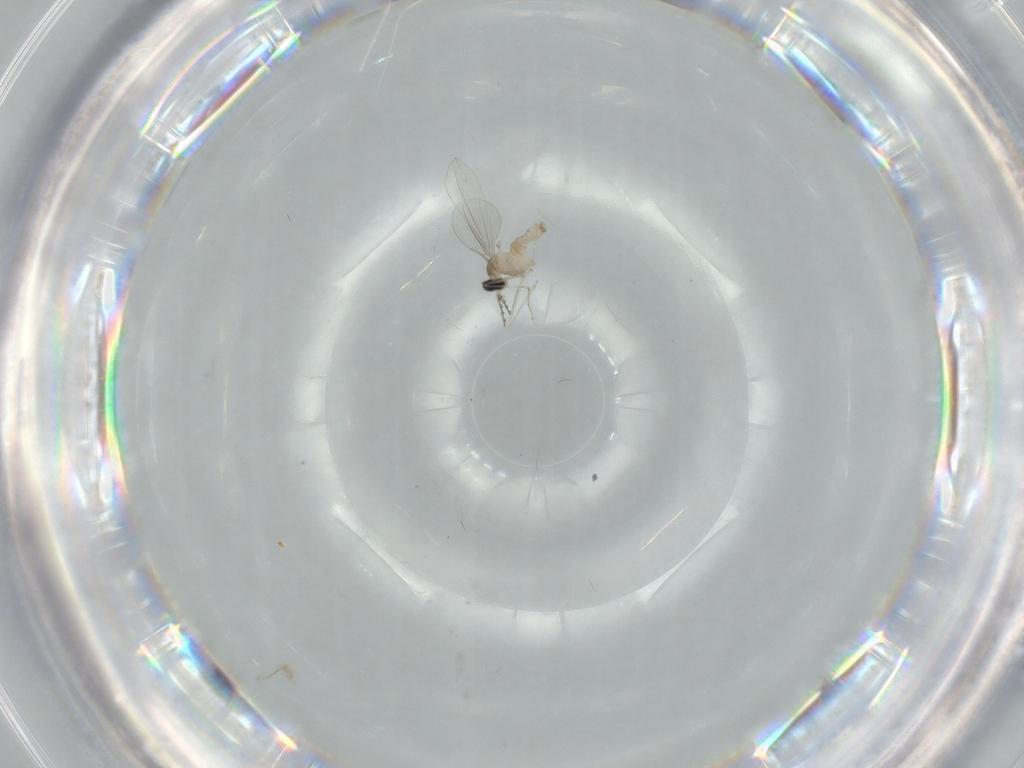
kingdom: Animalia
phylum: Arthropoda
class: Insecta
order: Diptera
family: Cecidomyiidae
